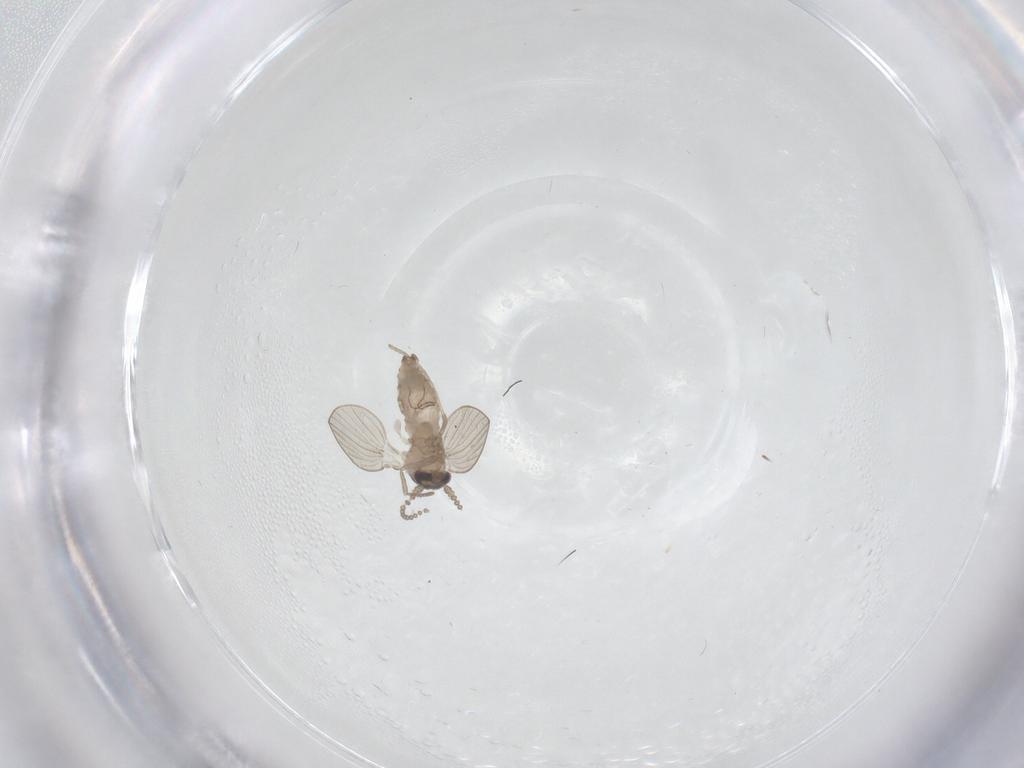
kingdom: Animalia
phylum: Arthropoda
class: Insecta
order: Diptera
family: Psychodidae
